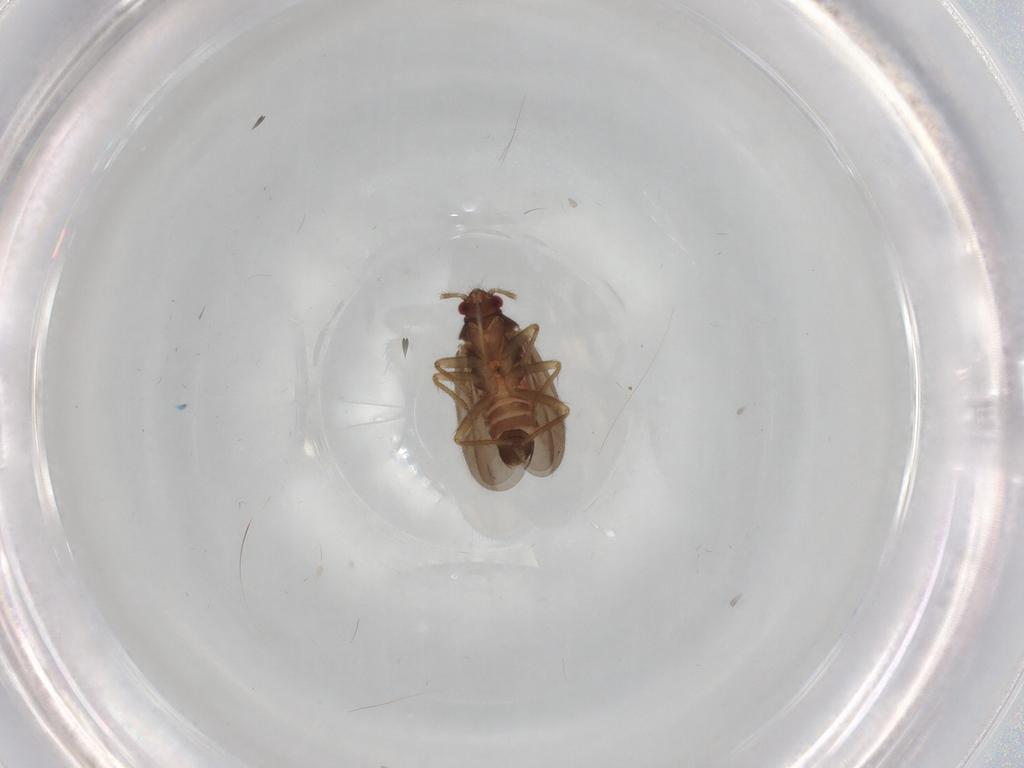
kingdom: Animalia
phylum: Arthropoda
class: Insecta
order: Hemiptera
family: Ceratocombidae
